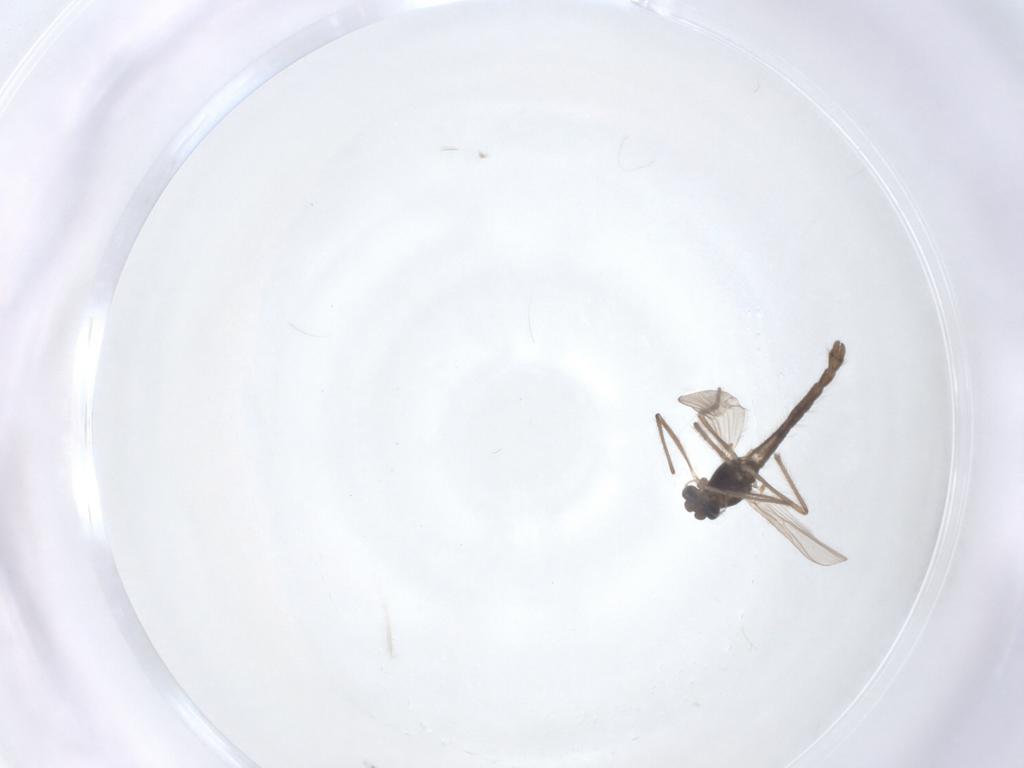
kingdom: Animalia
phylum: Arthropoda
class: Insecta
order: Diptera
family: Chironomidae
